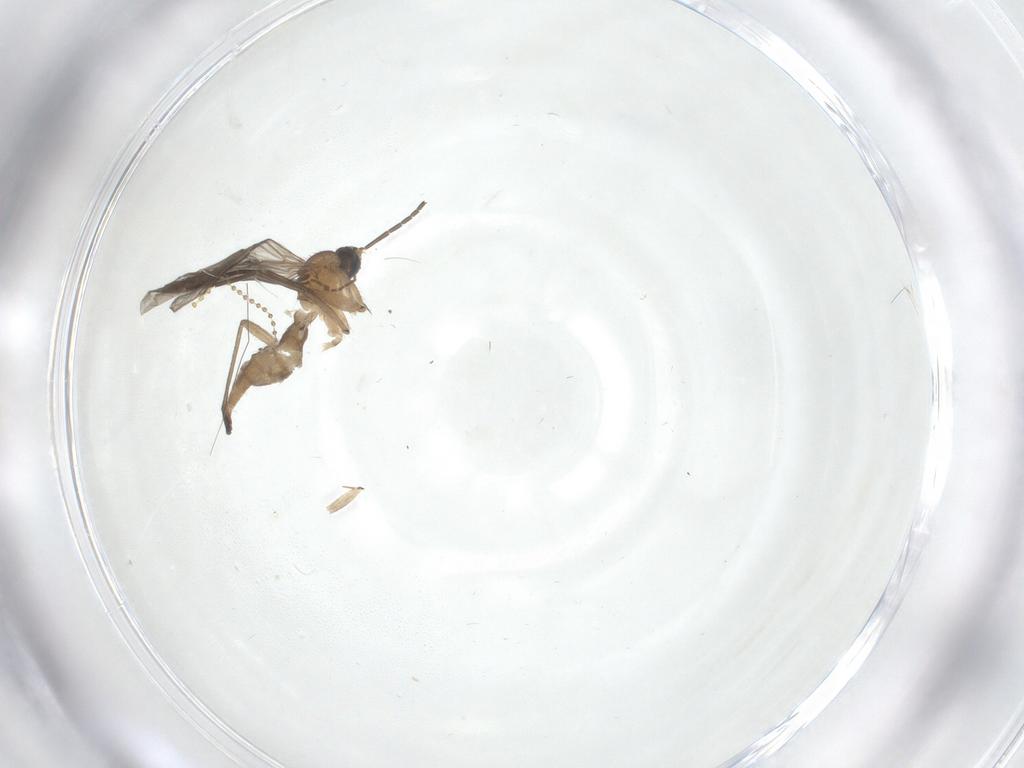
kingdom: Animalia
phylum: Arthropoda
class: Insecta
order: Diptera
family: Cecidomyiidae
